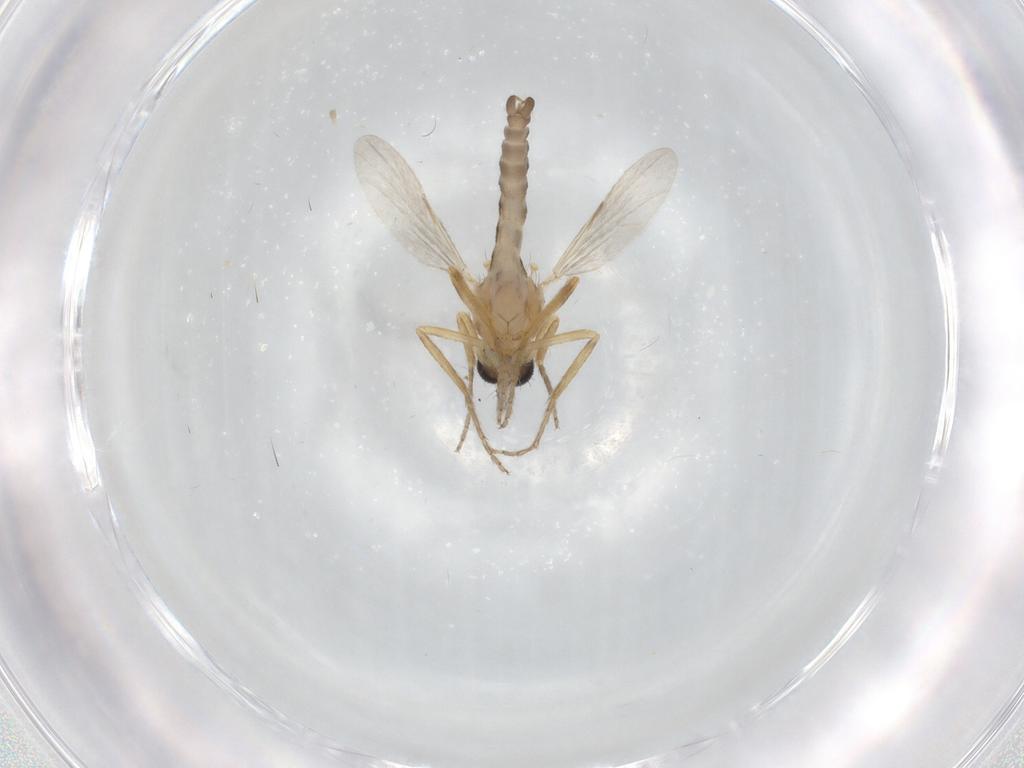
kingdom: Animalia
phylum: Arthropoda
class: Insecta
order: Diptera
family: Ceratopogonidae
